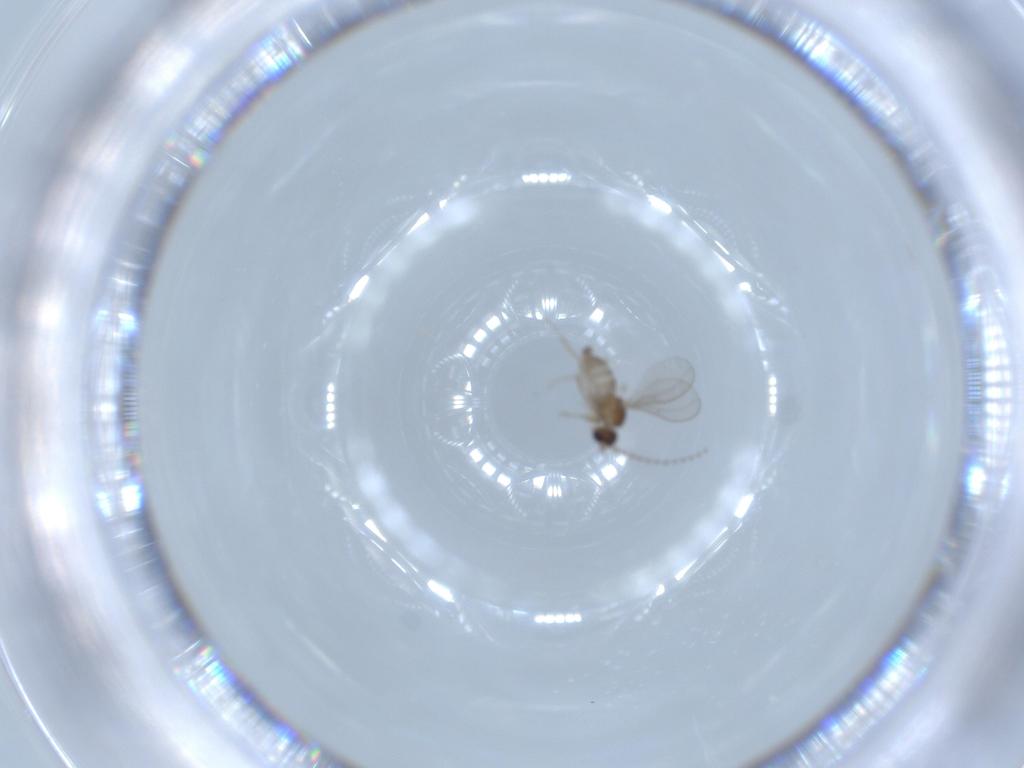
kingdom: Animalia
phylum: Arthropoda
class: Insecta
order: Diptera
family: Cecidomyiidae
